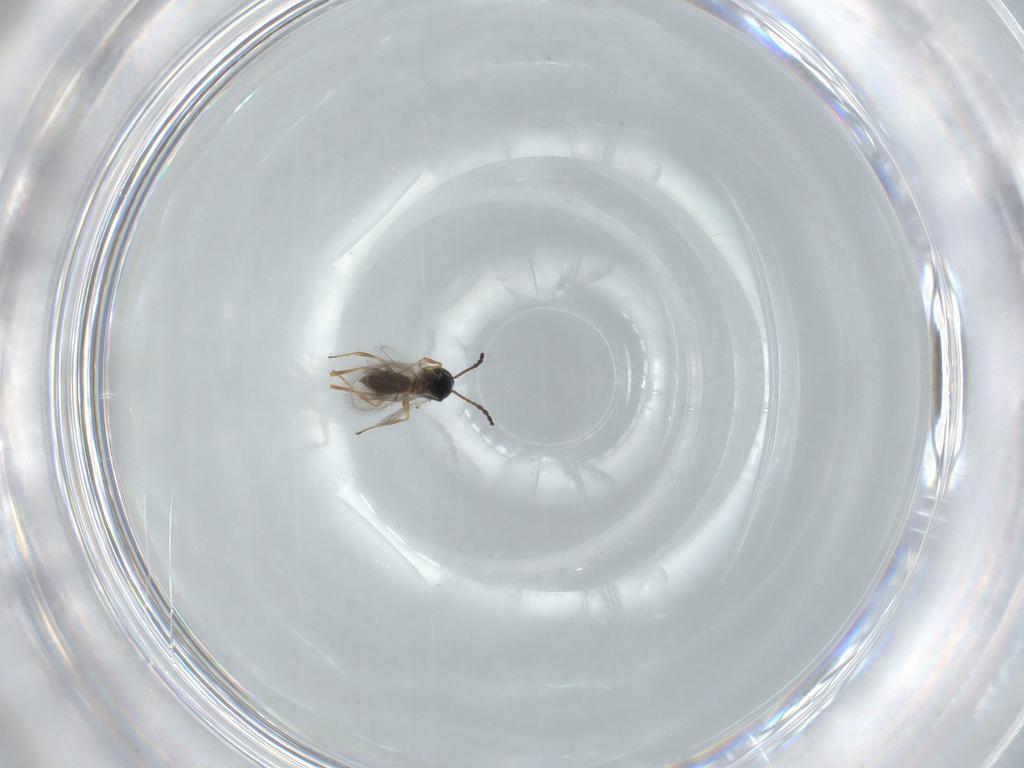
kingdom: Animalia
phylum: Arthropoda
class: Insecta
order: Hymenoptera
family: Figitidae
